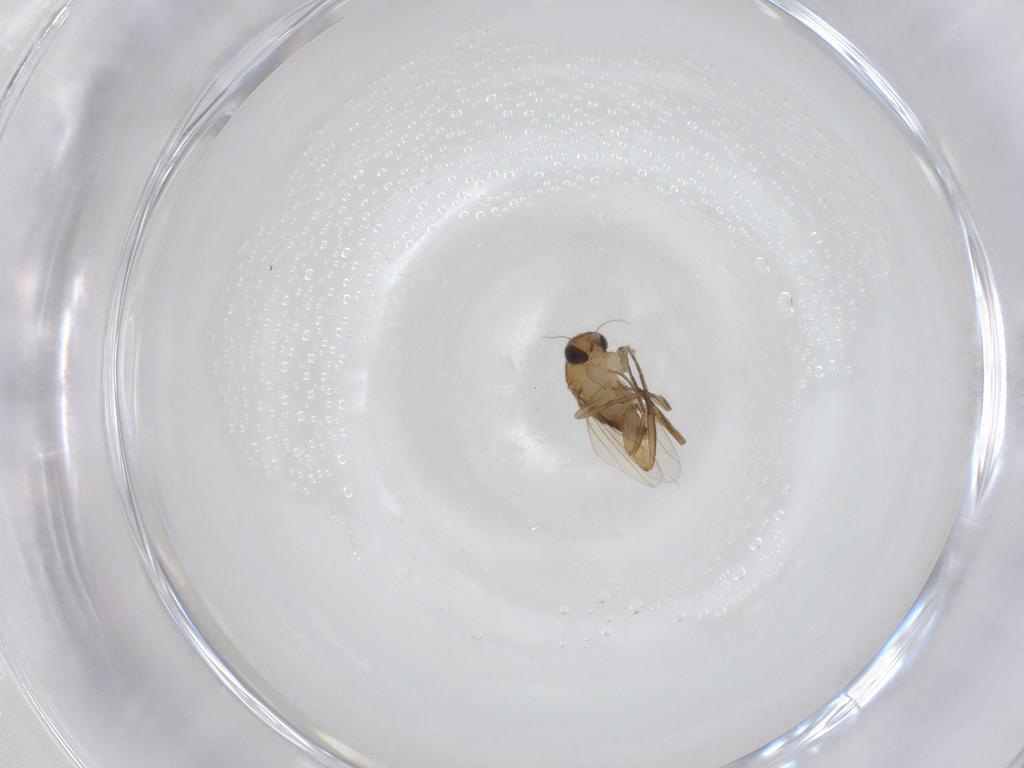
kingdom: Animalia
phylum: Arthropoda
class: Insecta
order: Diptera
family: Phoridae
